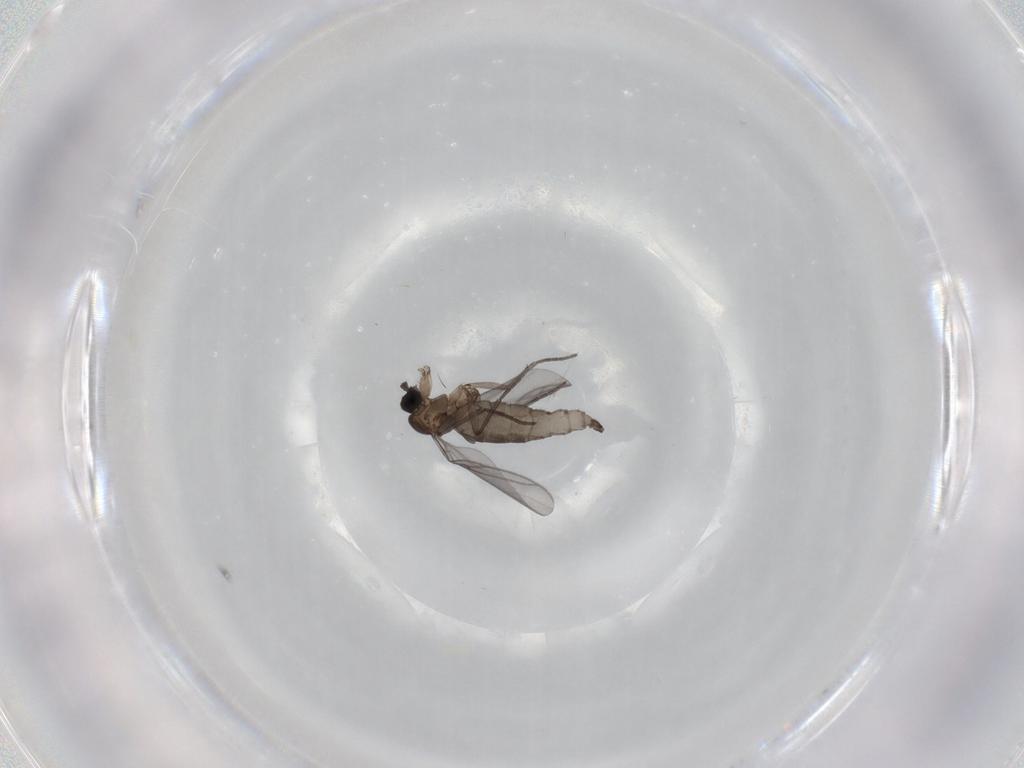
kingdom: Animalia
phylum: Arthropoda
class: Insecta
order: Diptera
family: Sciaridae
